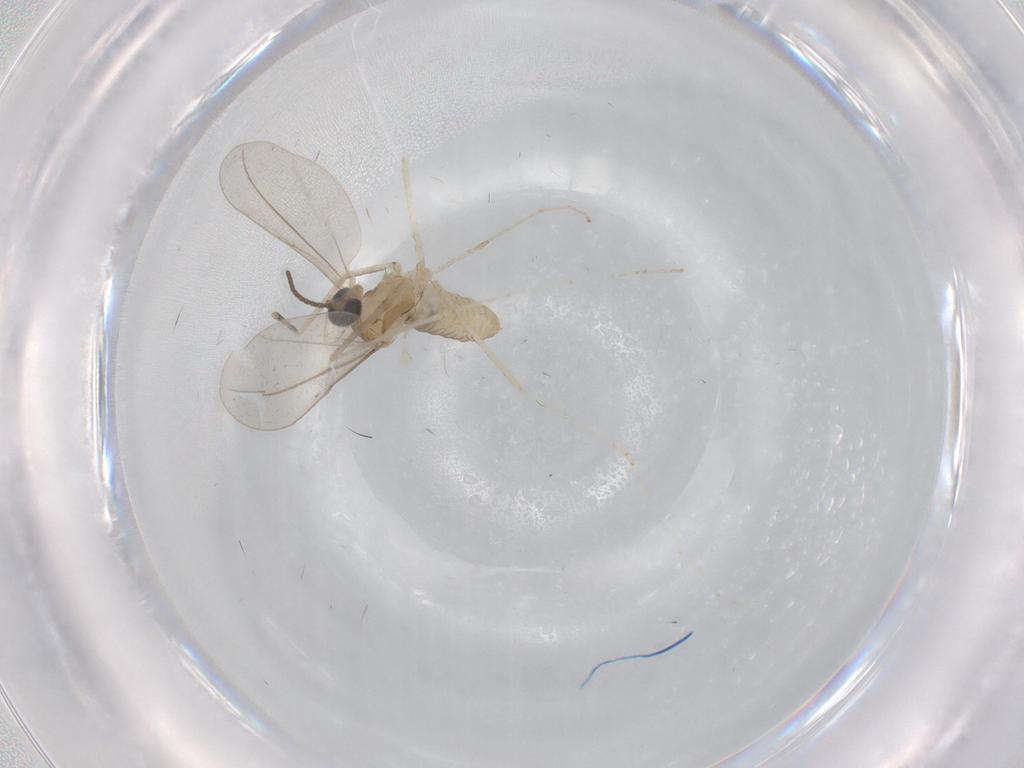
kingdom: Animalia
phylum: Arthropoda
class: Insecta
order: Diptera
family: Cecidomyiidae
